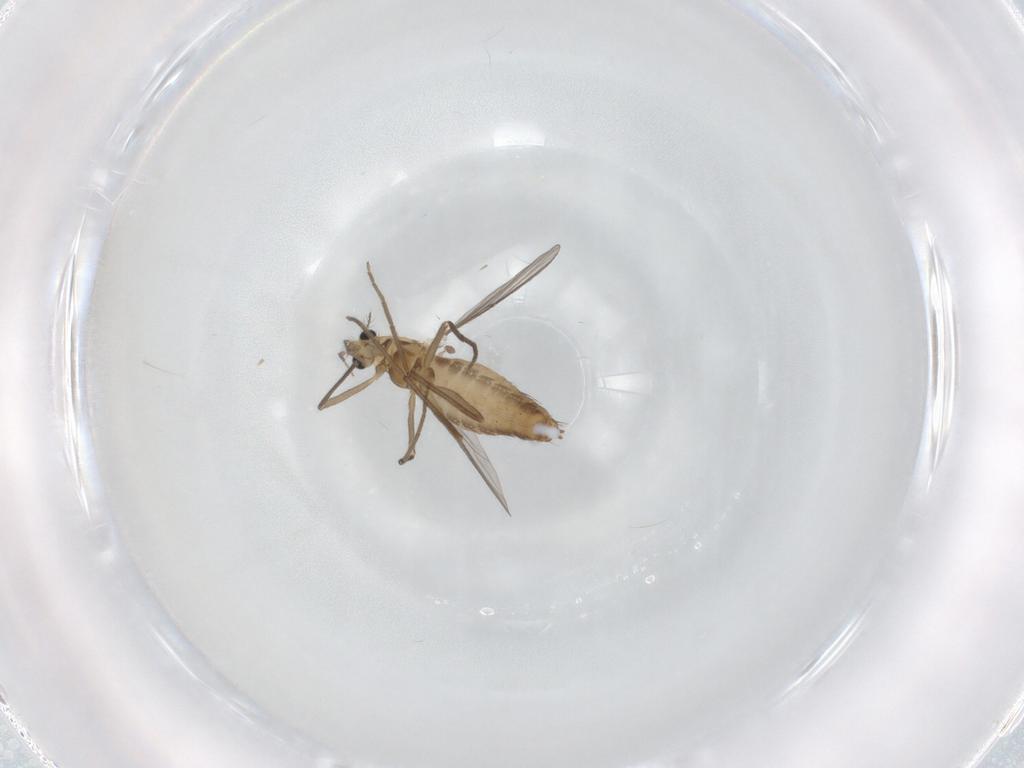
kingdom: Animalia
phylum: Arthropoda
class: Insecta
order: Diptera
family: Chironomidae
